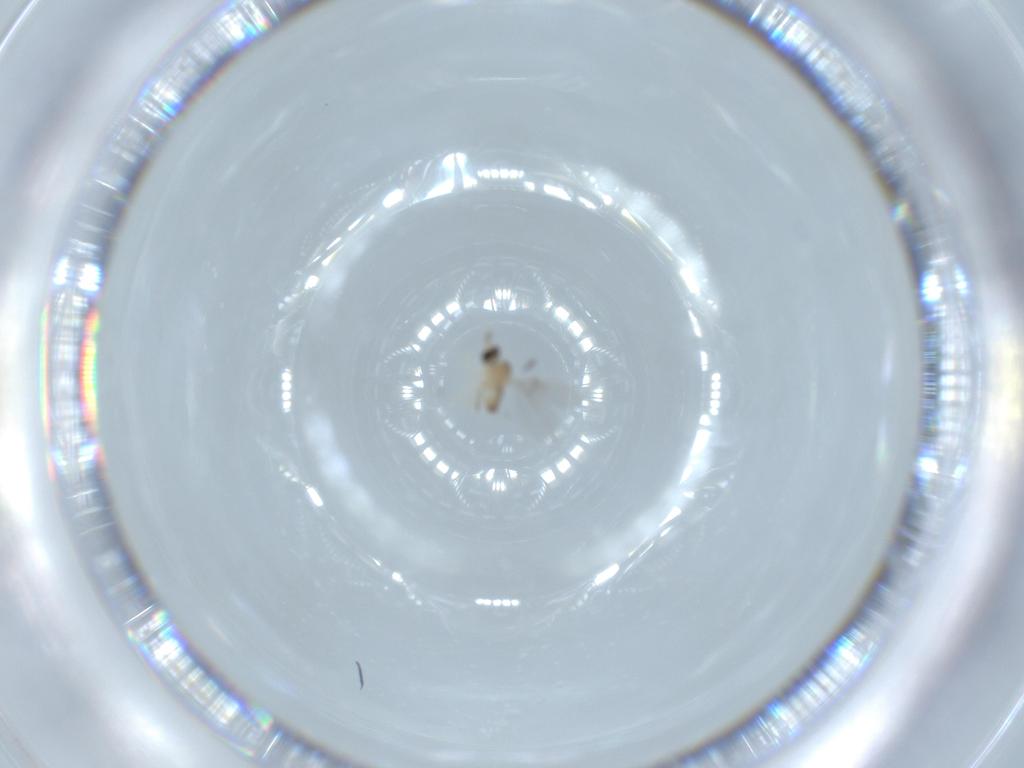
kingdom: Animalia
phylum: Arthropoda
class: Insecta
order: Diptera
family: Cecidomyiidae
